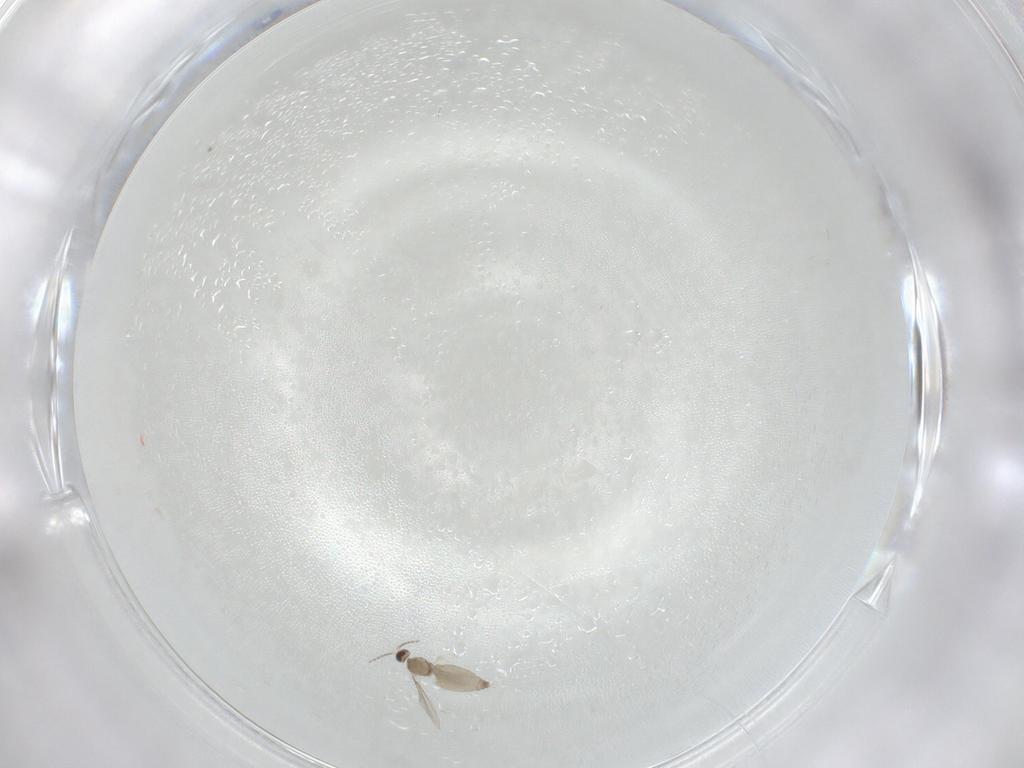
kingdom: Animalia
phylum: Arthropoda
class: Insecta
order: Diptera
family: Cecidomyiidae
